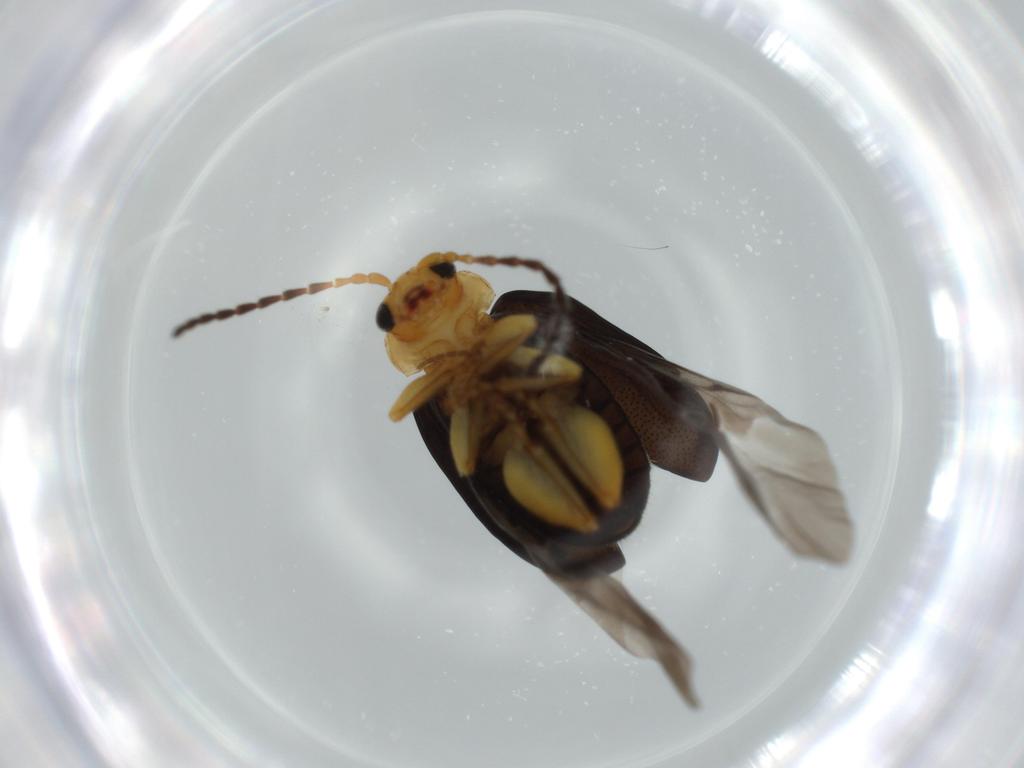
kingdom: Animalia
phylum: Arthropoda
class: Insecta
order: Coleoptera
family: Chrysomelidae
